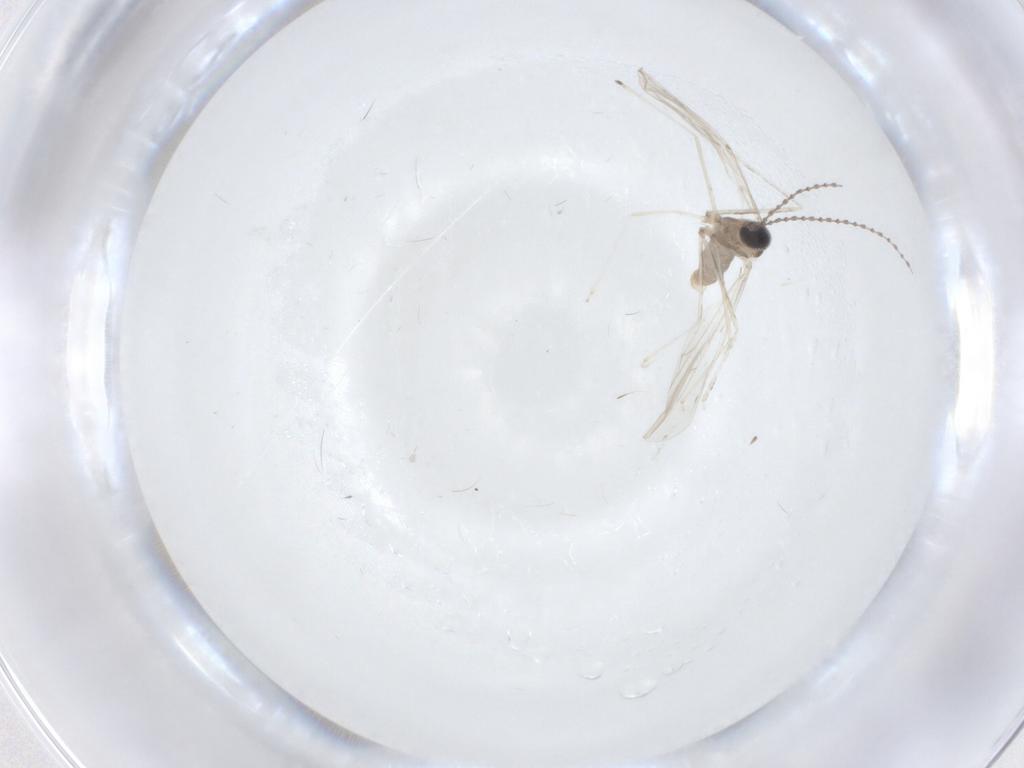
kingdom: Animalia
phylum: Arthropoda
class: Insecta
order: Diptera
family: Cecidomyiidae
